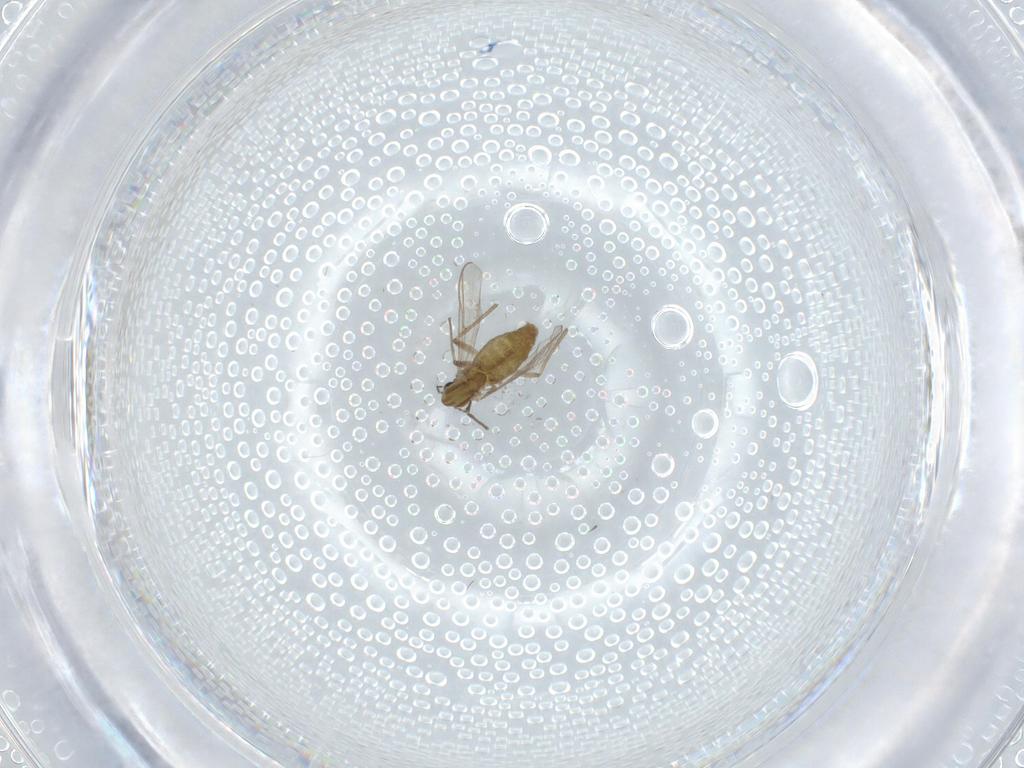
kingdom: Animalia
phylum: Arthropoda
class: Insecta
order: Diptera
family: Chironomidae
